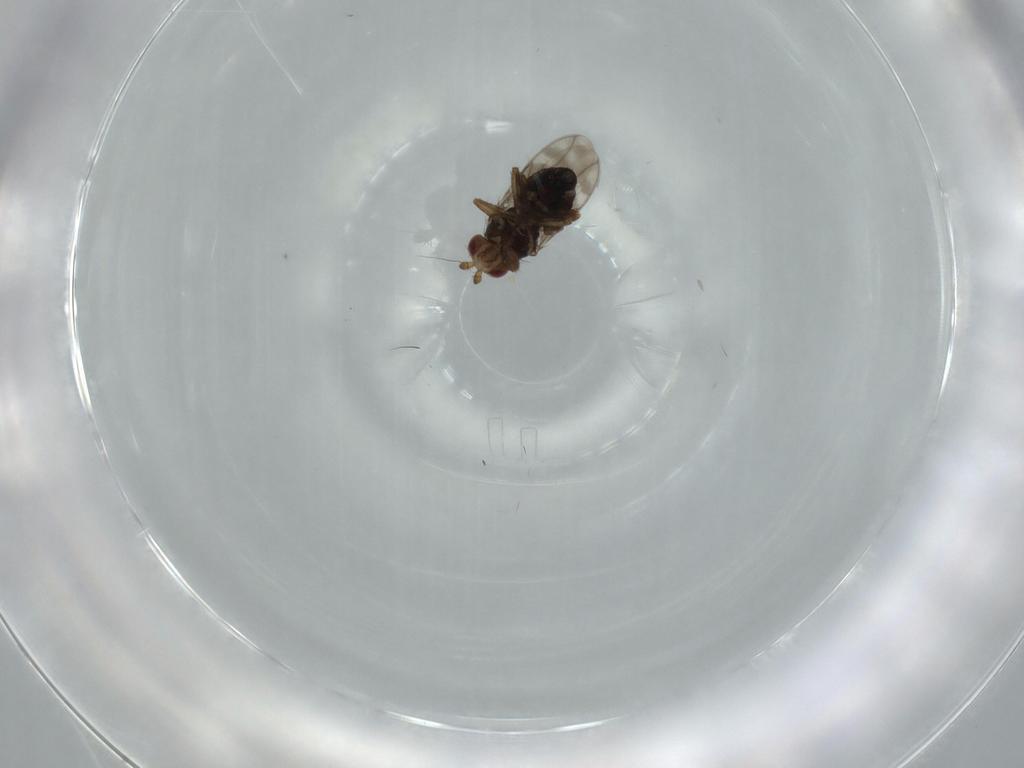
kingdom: Animalia
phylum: Arthropoda
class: Insecta
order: Diptera
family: Sphaeroceridae
